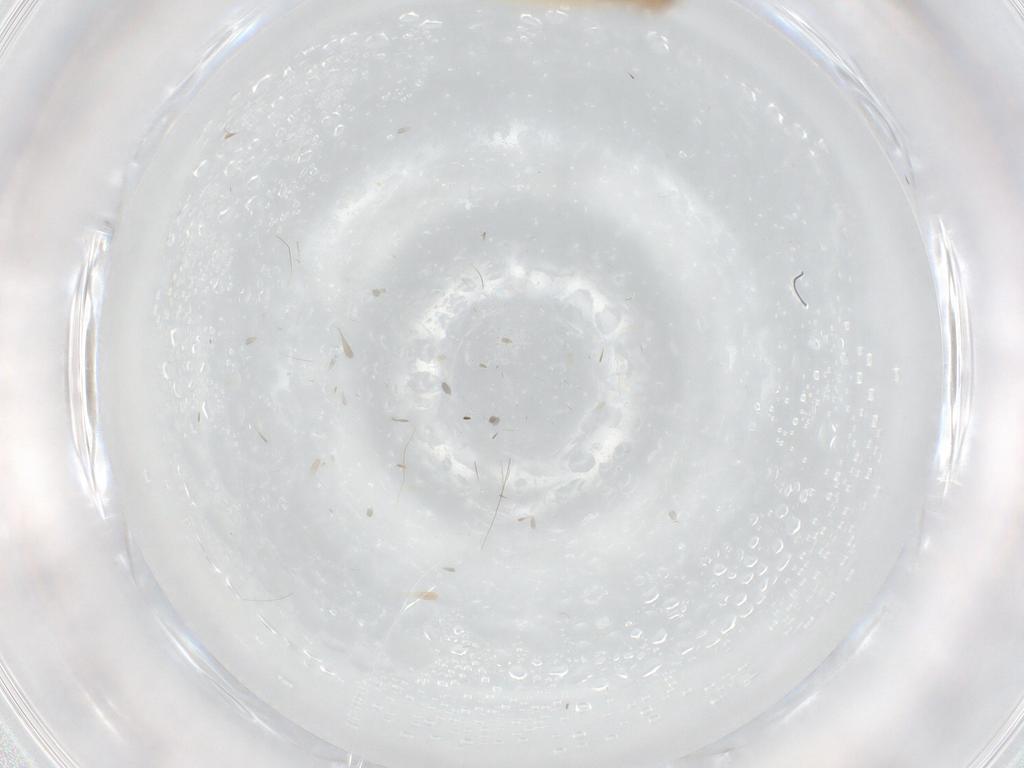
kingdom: Animalia
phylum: Arthropoda
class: Insecta
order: Diptera
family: Cecidomyiidae
